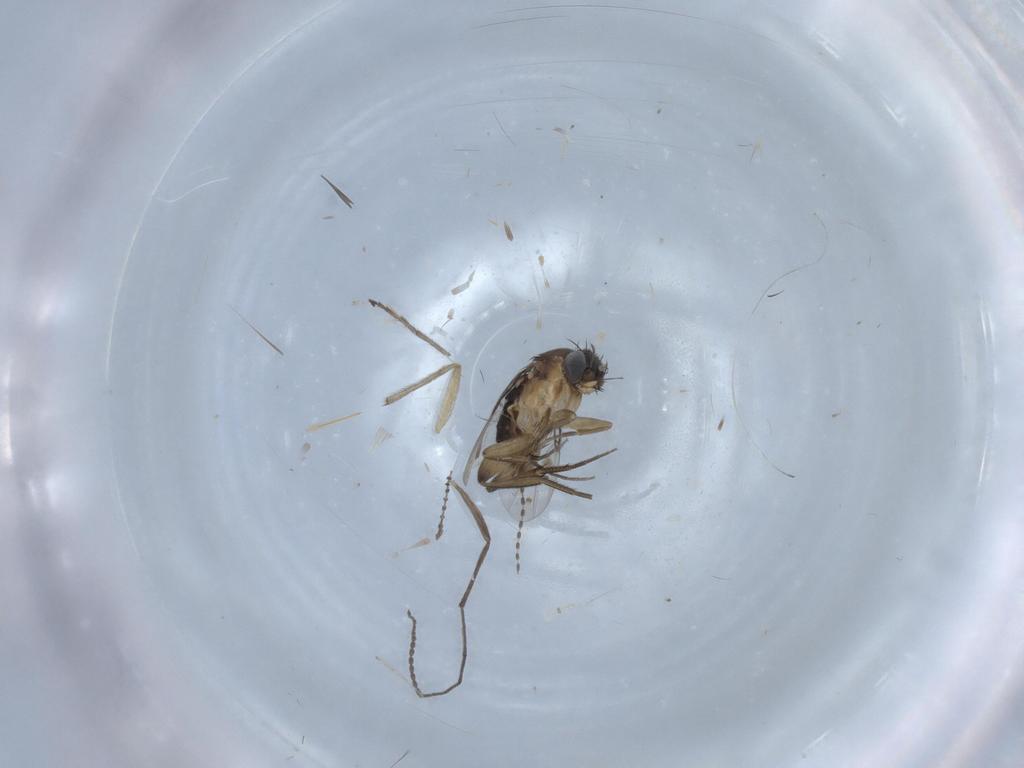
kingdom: Animalia
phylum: Arthropoda
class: Insecta
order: Diptera
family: Phoridae
